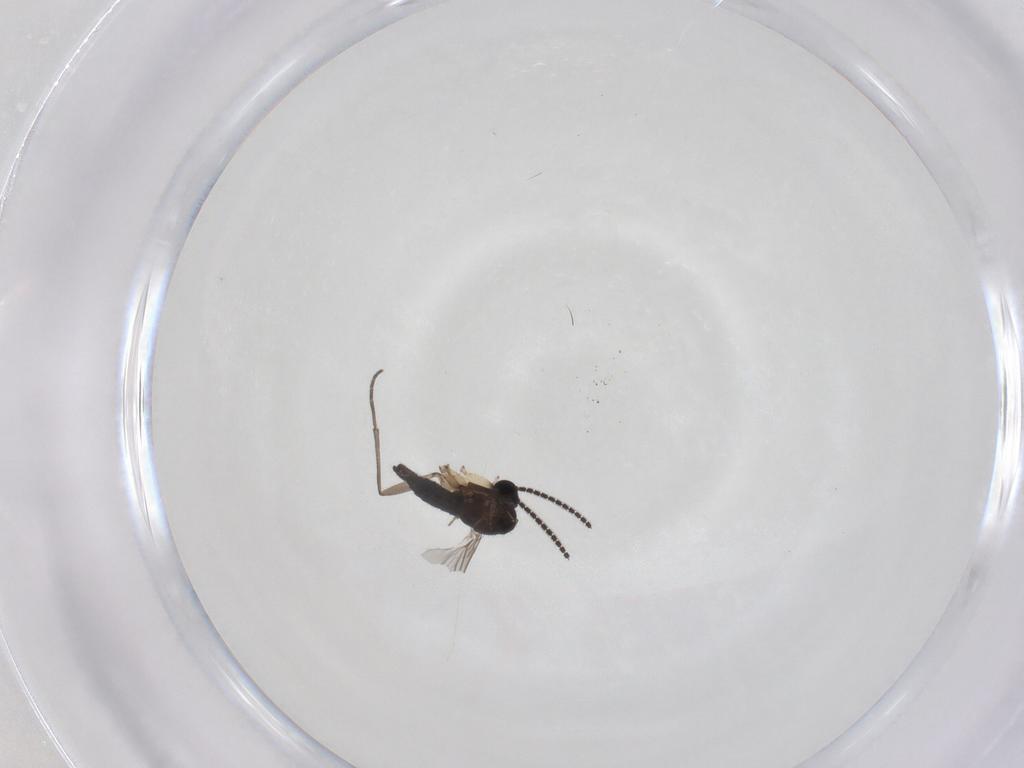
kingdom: Animalia
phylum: Arthropoda
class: Insecta
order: Diptera
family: Sciaridae
